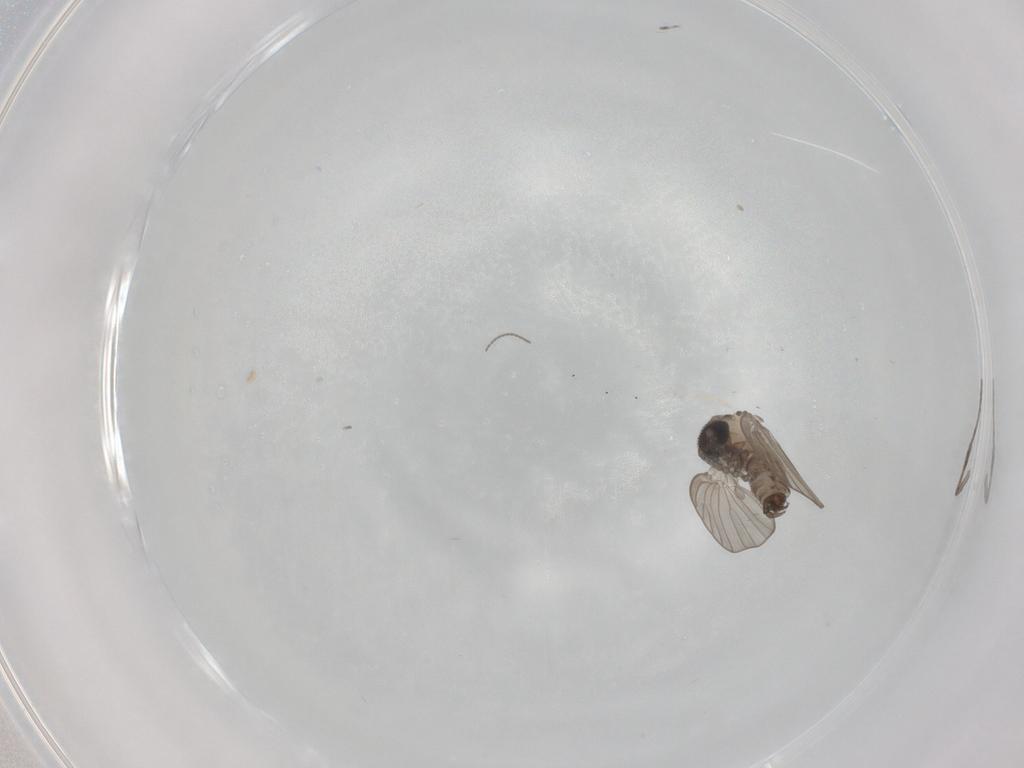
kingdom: Animalia
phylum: Arthropoda
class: Insecta
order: Diptera
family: Psychodidae
